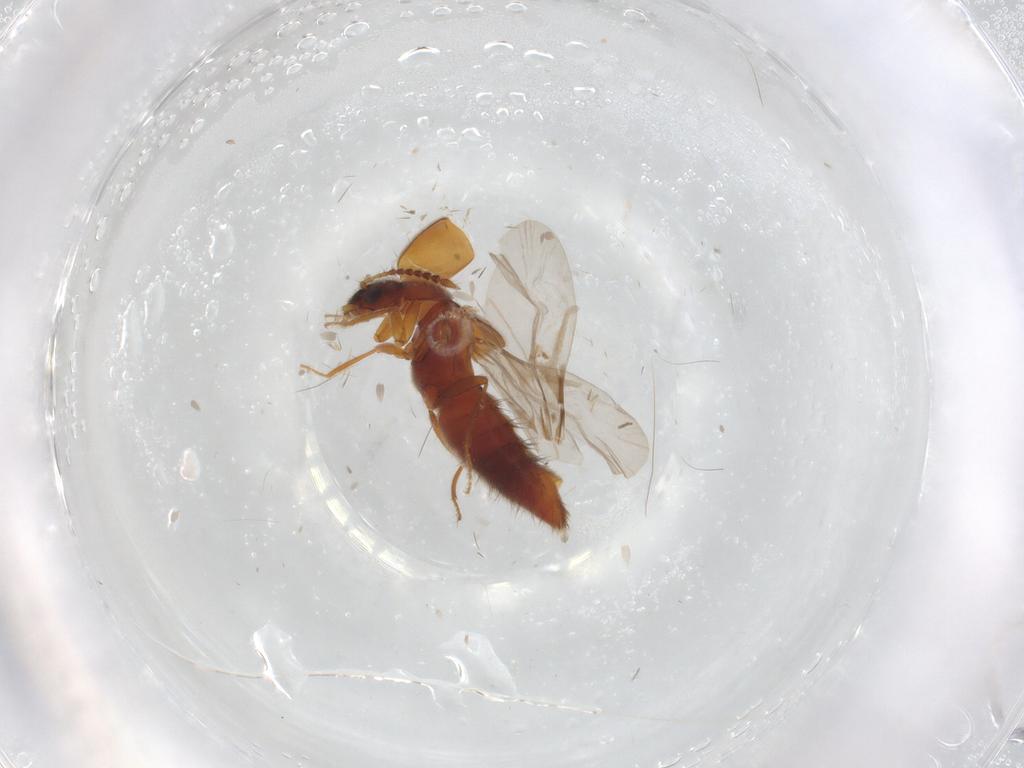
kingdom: Animalia
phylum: Arthropoda
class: Insecta
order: Coleoptera
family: Staphylinidae
